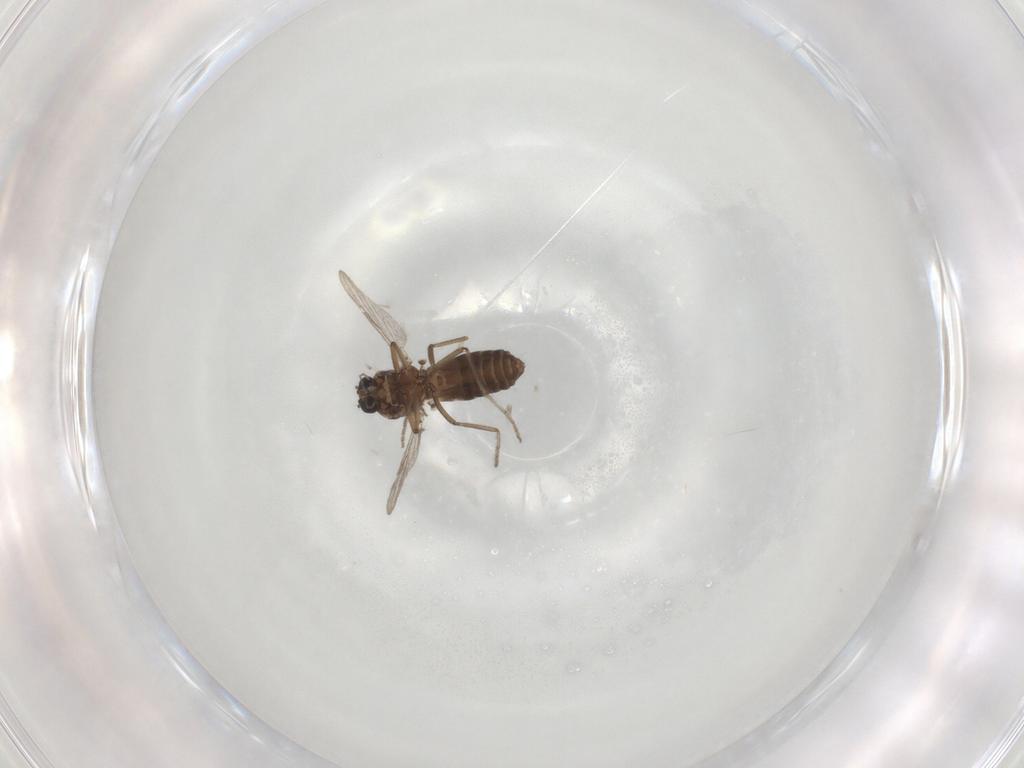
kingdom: Animalia
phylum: Arthropoda
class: Insecta
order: Diptera
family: Ceratopogonidae
